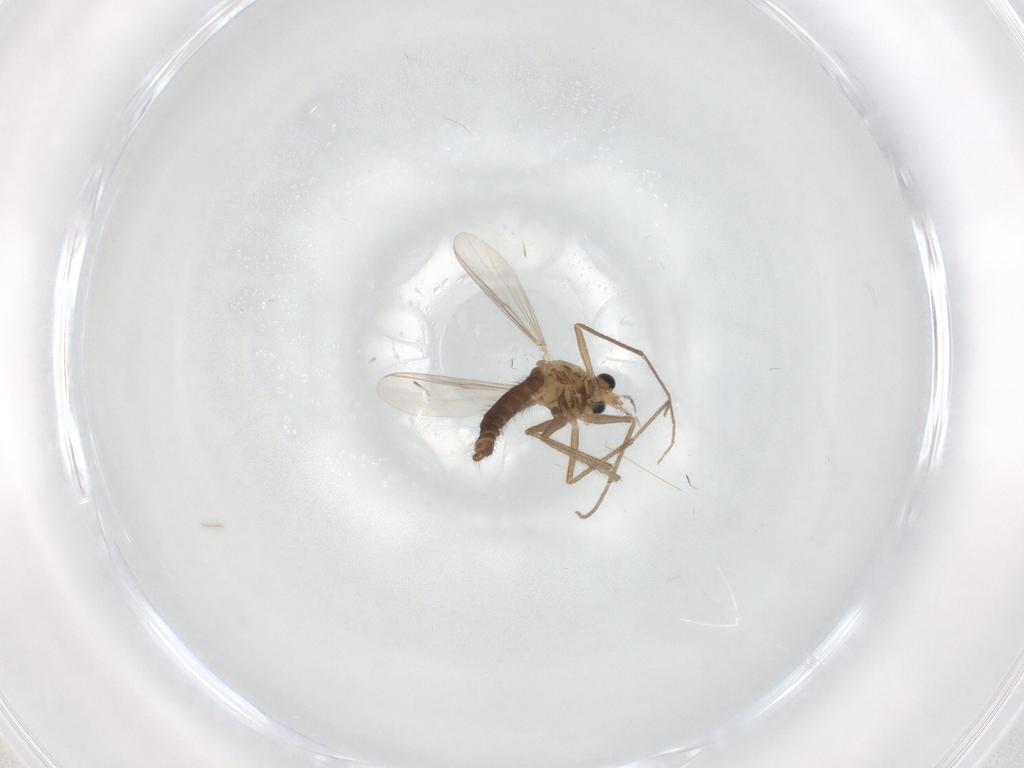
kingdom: Animalia
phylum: Arthropoda
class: Insecta
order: Diptera
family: Chironomidae
